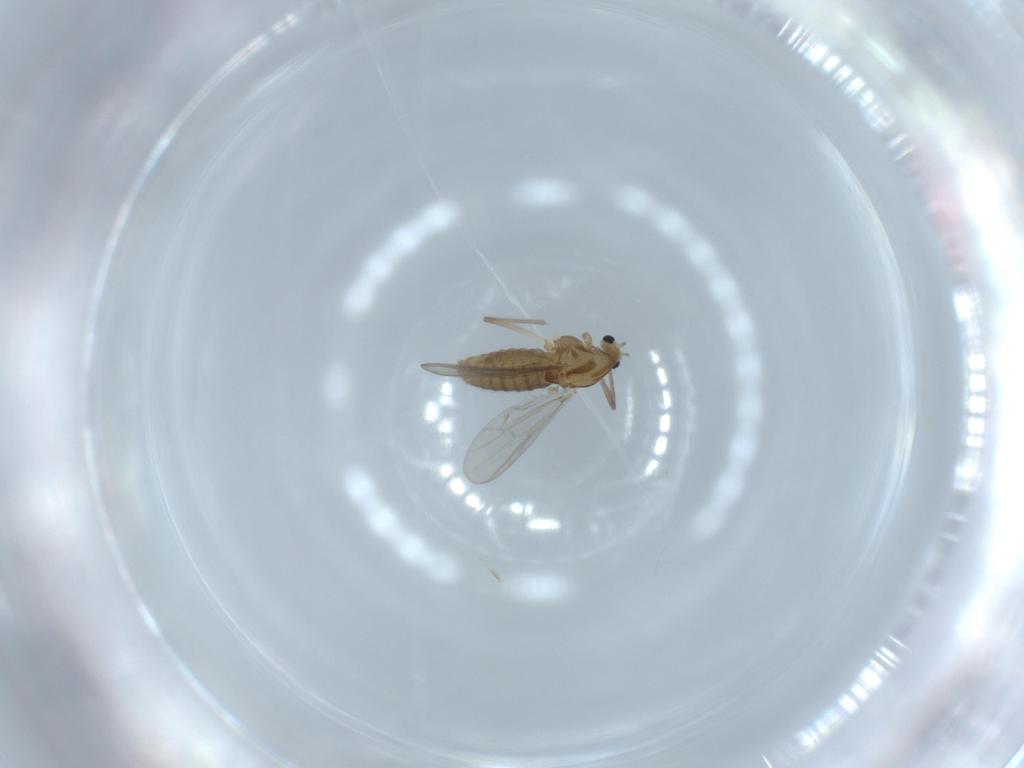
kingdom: Animalia
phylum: Arthropoda
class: Insecta
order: Diptera
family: Chironomidae
